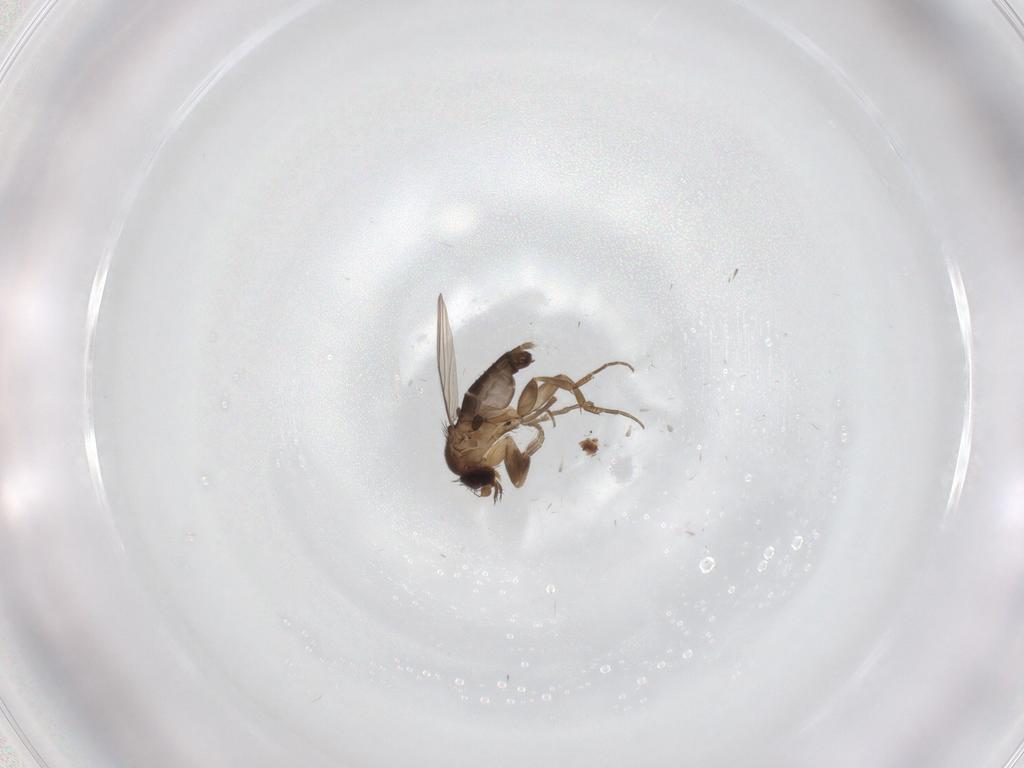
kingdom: Animalia
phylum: Arthropoda
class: Insecta
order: Diptera
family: Phoridae
